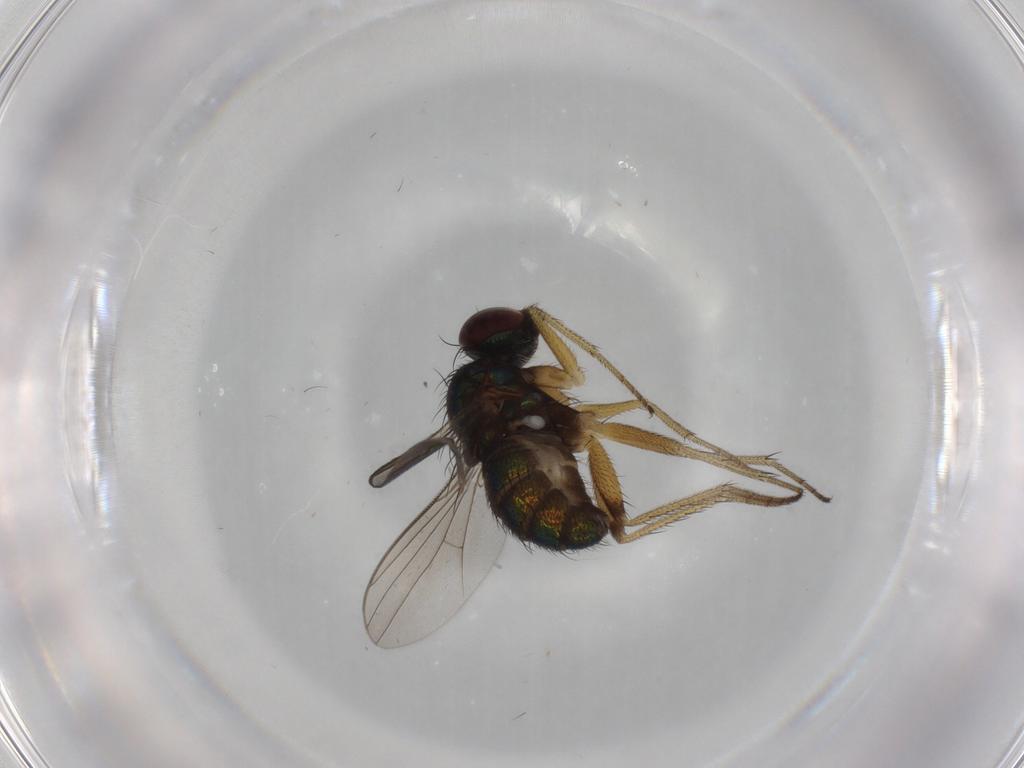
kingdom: Animalia
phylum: Arthropoda
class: Insecta
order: Diptera
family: Dolichopodidae
